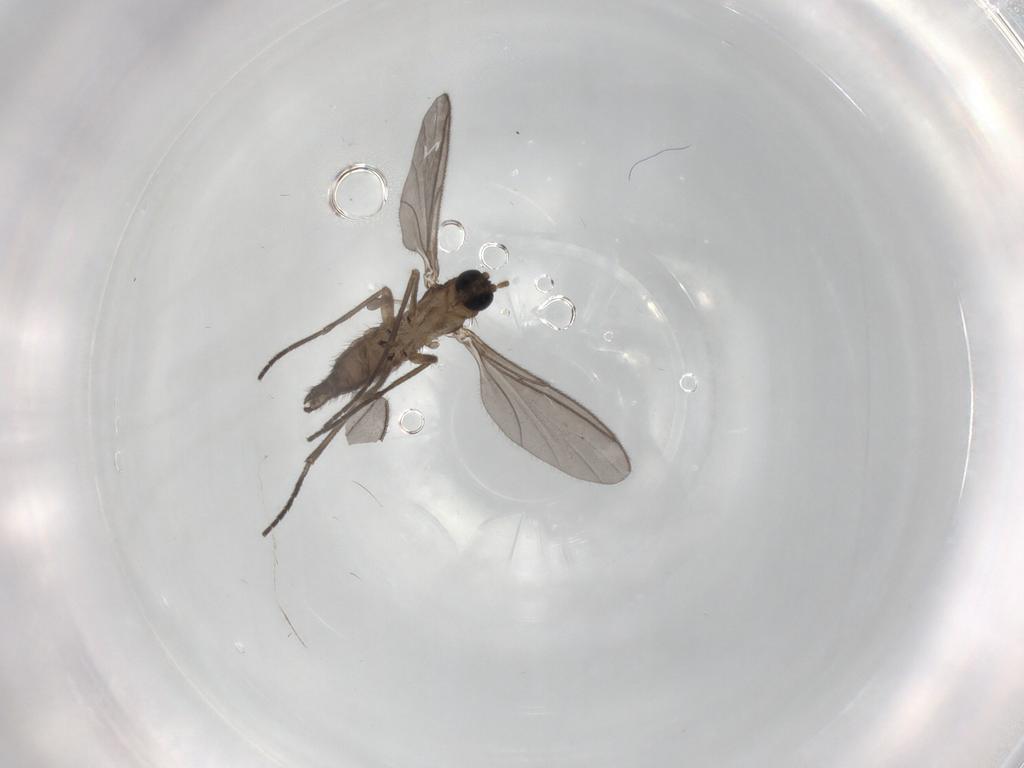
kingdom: Animalia
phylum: Arthropoda
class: Insecta
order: Diptera
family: Sciaridae
